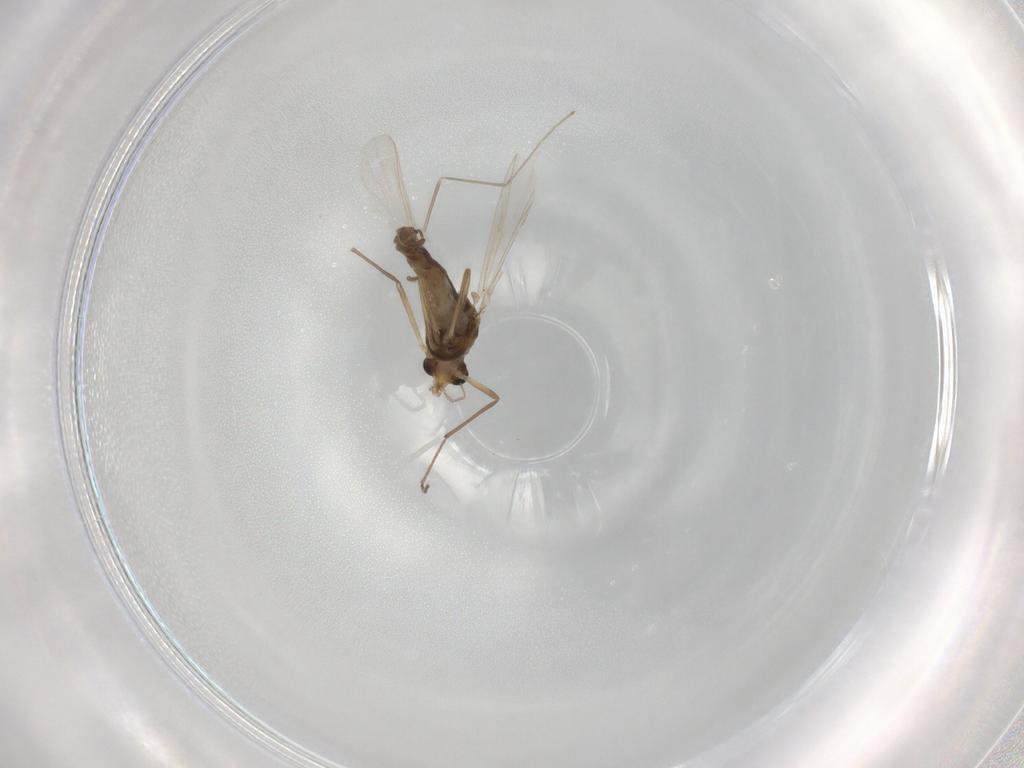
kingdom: Animalia
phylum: Arthropoda
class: Insecta
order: Diptera
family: Chironomidae
